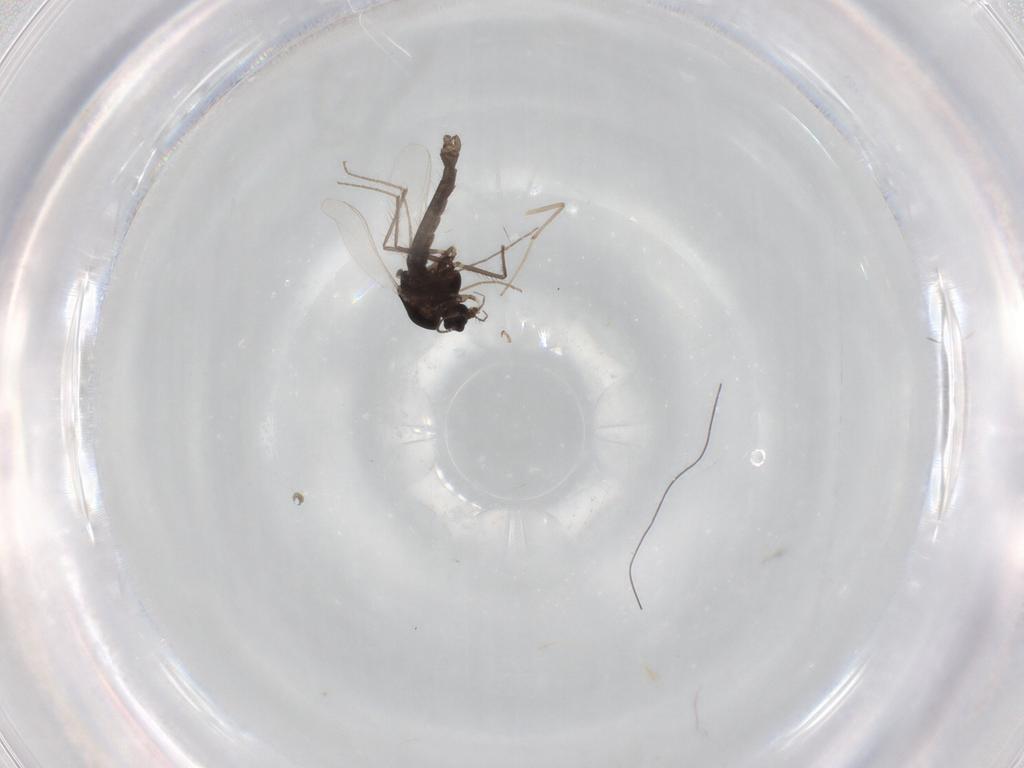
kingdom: Animalia
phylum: Arthropoda
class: Insecta
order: Diptera
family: Chironomidae
